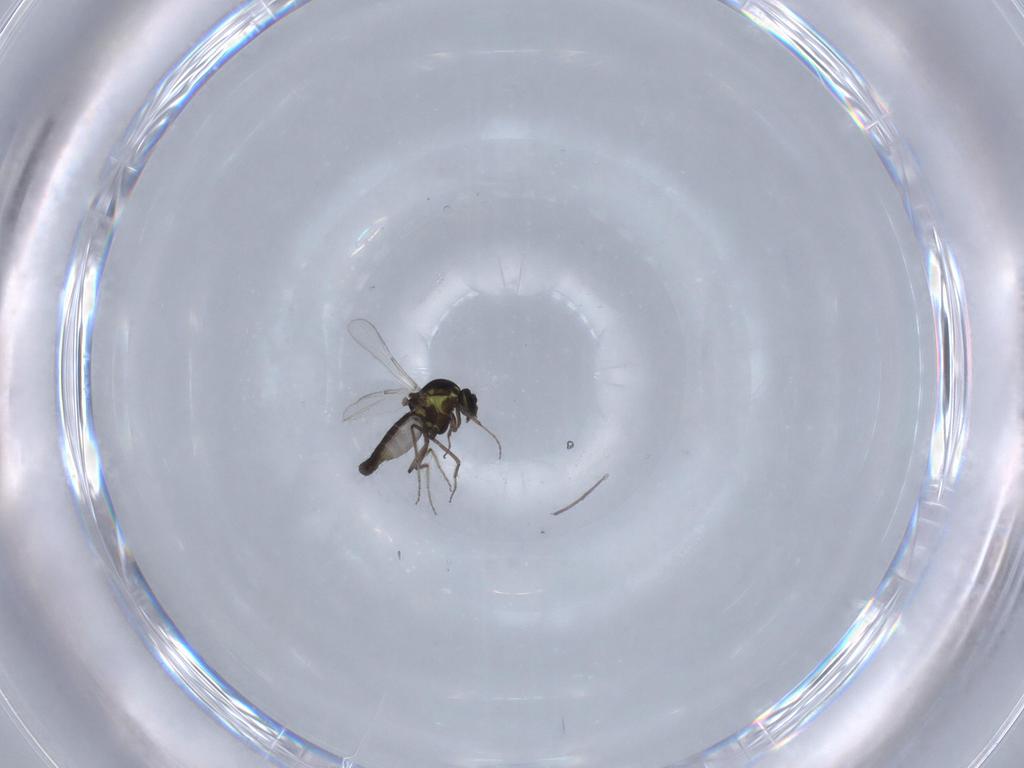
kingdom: Animalia
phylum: Arthropoda
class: Insecta
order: Diptera
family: Ceratopogonidae
